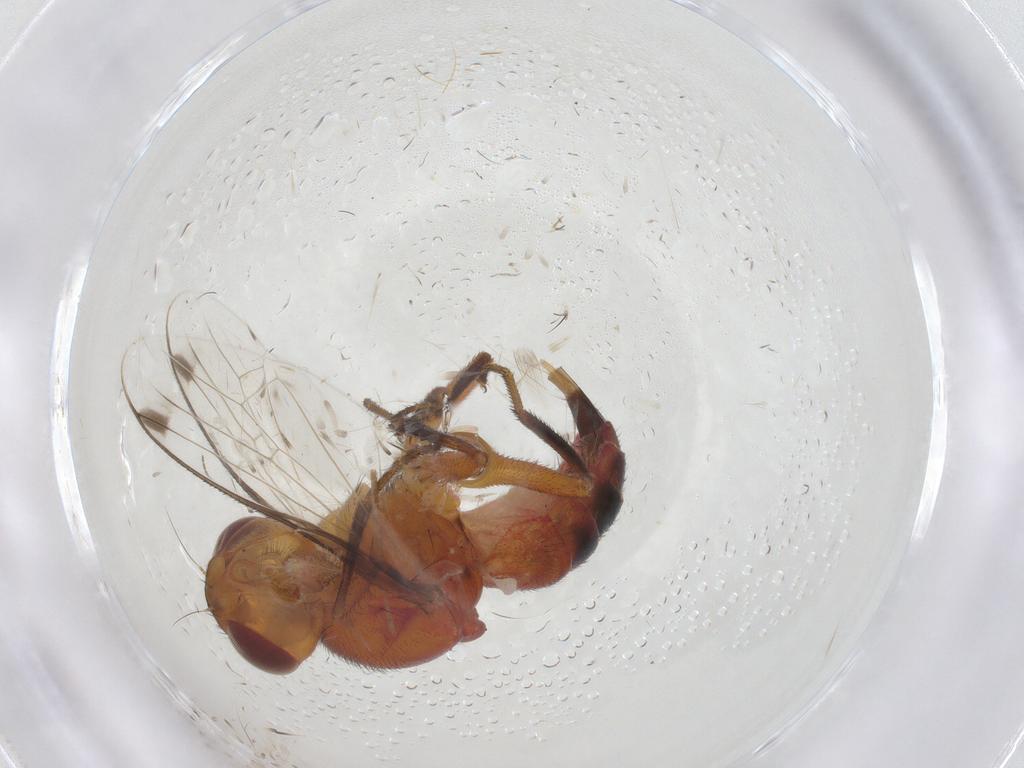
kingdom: Animalia
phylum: Arthropoda
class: Insecta
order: Diptera
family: Richardiidae
